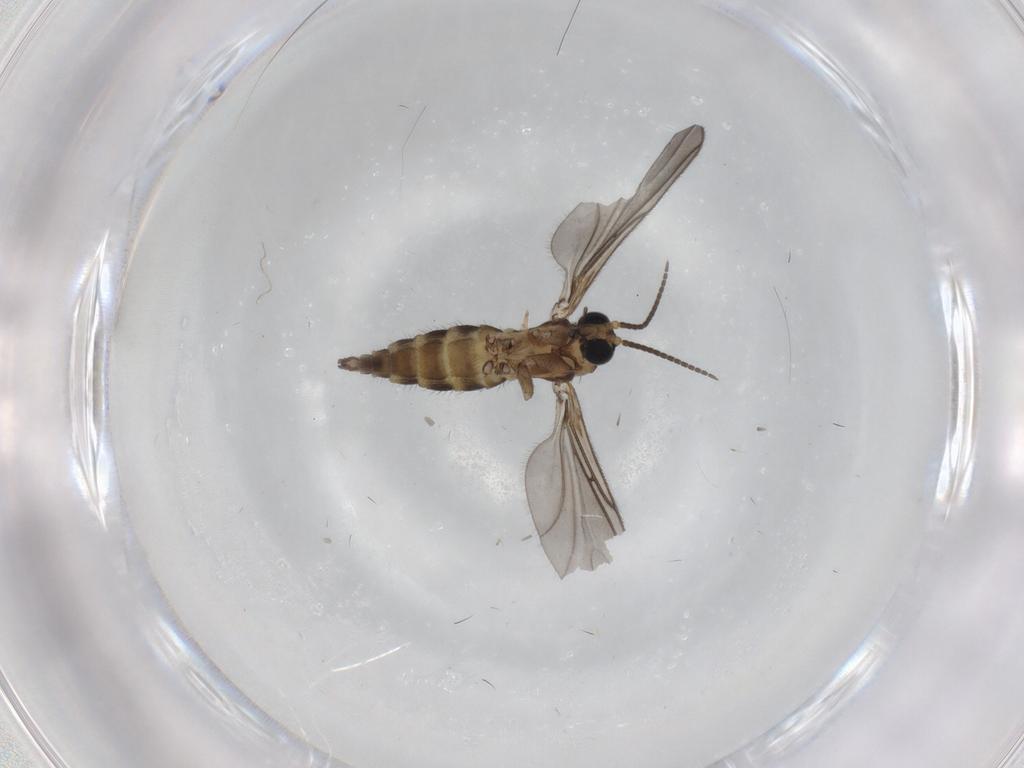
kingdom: Animalia
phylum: Arthropoda
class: Insecta
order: Diptera
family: Sciaridae
